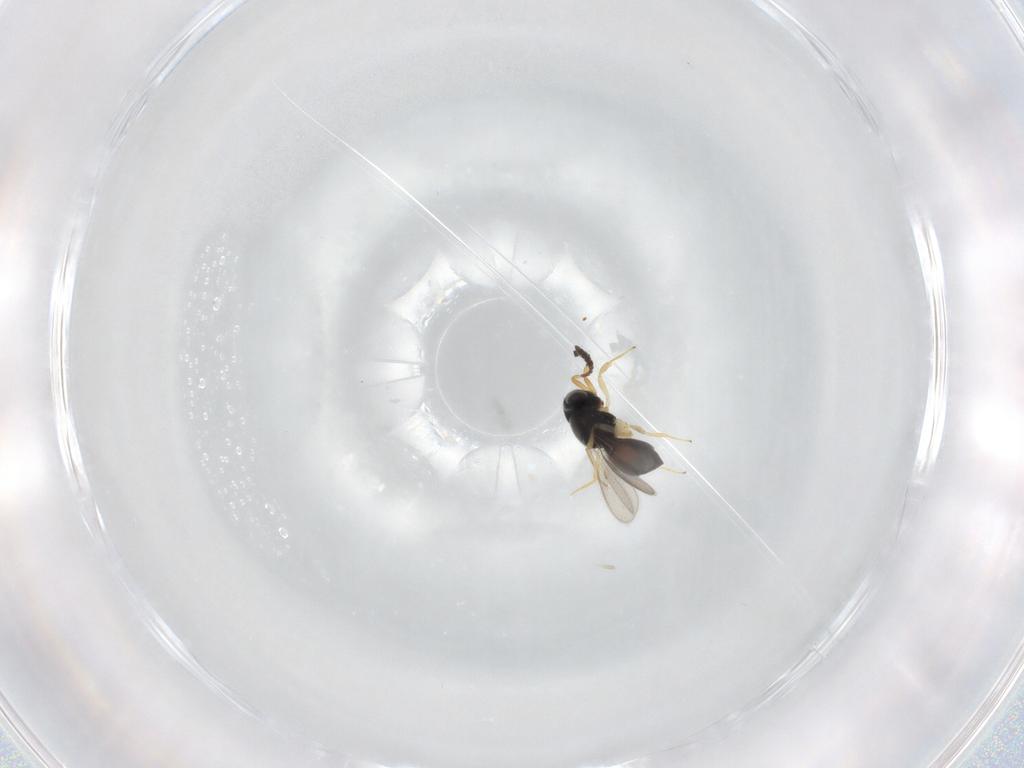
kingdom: Animalia
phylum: Arthropoda
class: Insecta
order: Hymenoptera
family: Scelionidae
